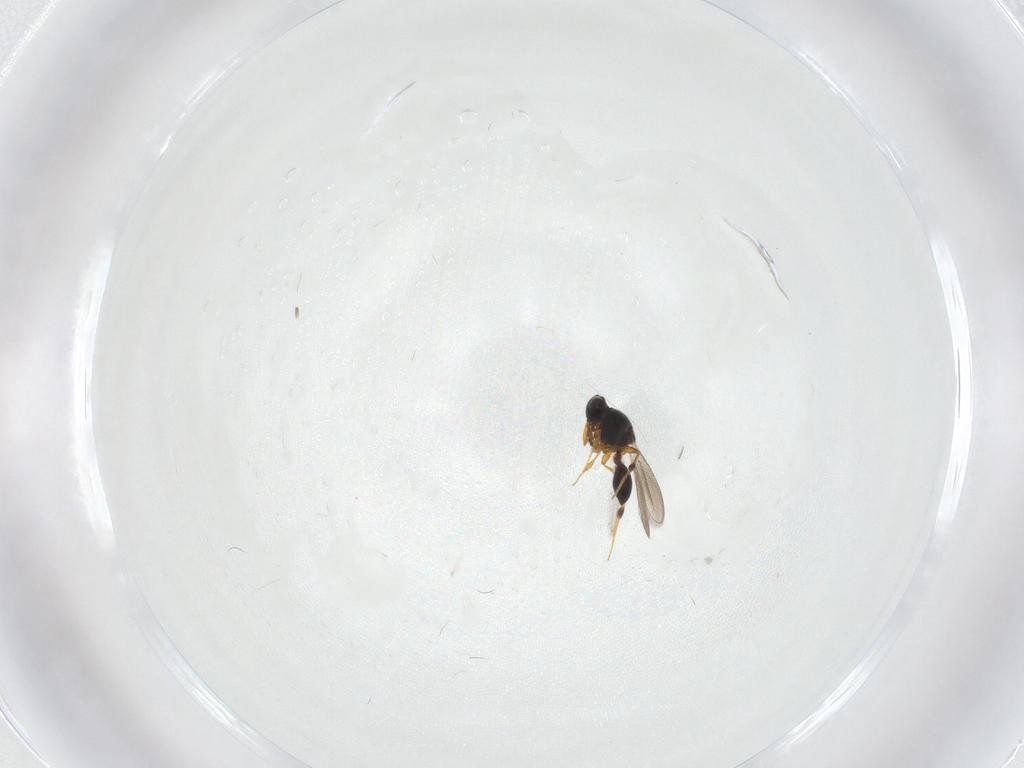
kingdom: Animalia
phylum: Arthropoda
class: Insecta
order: Hymenoptera
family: Platygastridae
